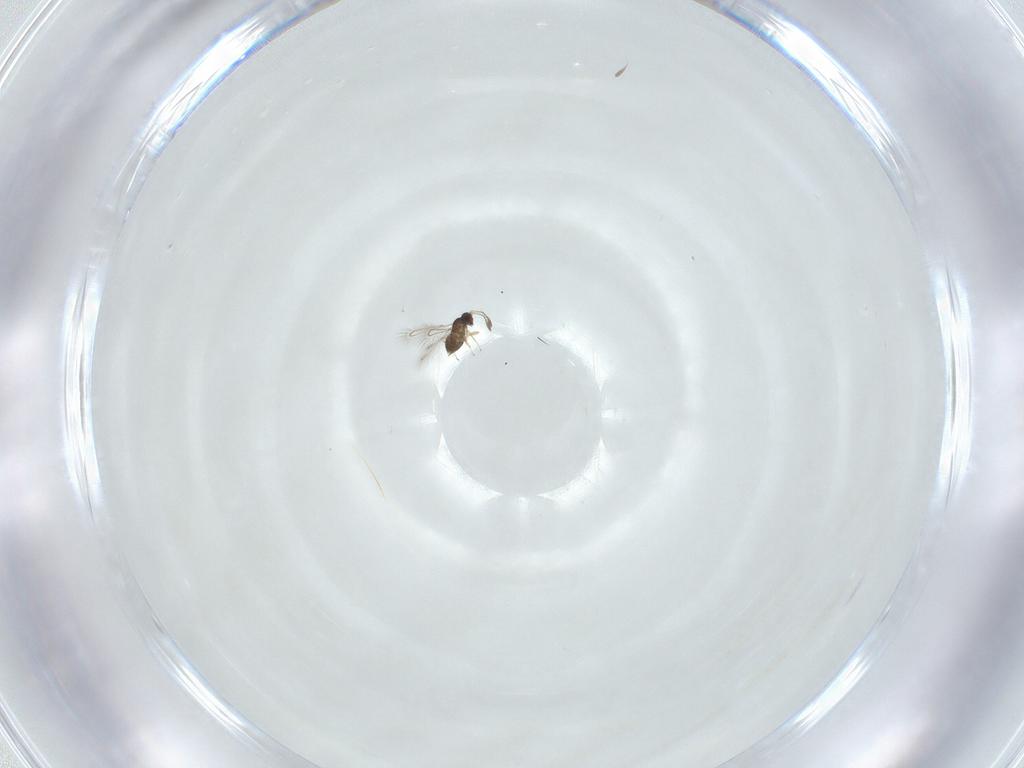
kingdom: Animalia
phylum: Arthropoda
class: Insecta
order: Hymenoptera
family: Mymaridae
